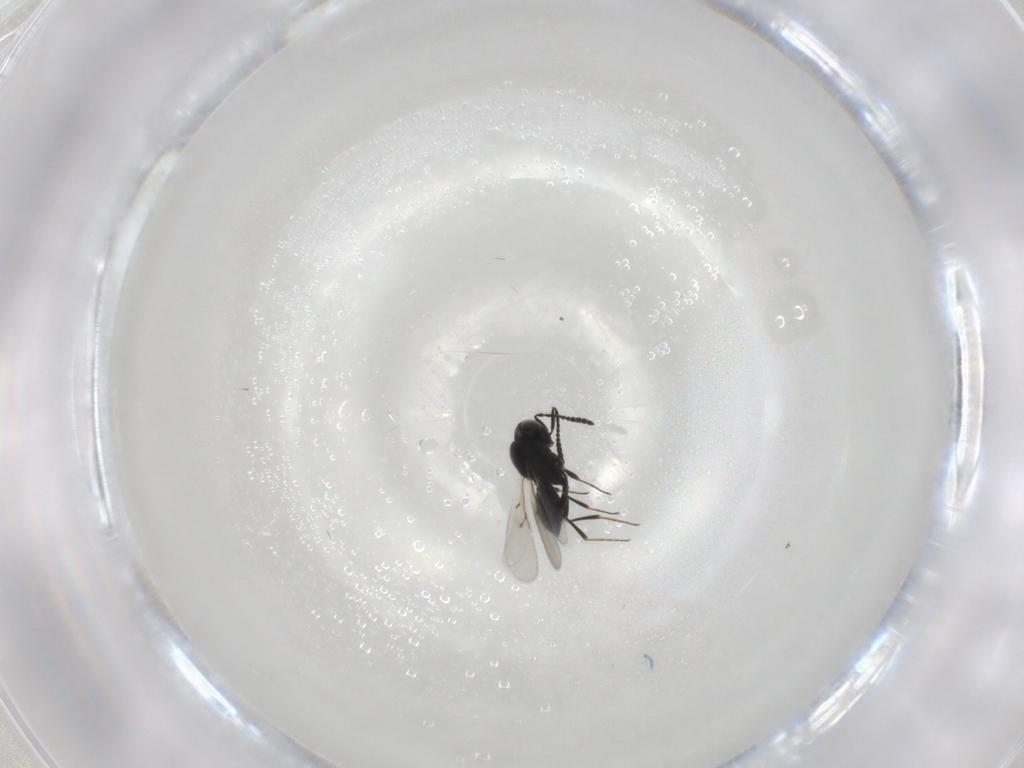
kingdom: Animalia
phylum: Arthropoda
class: Insecta
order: Hymenoptera
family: Scelionidae
